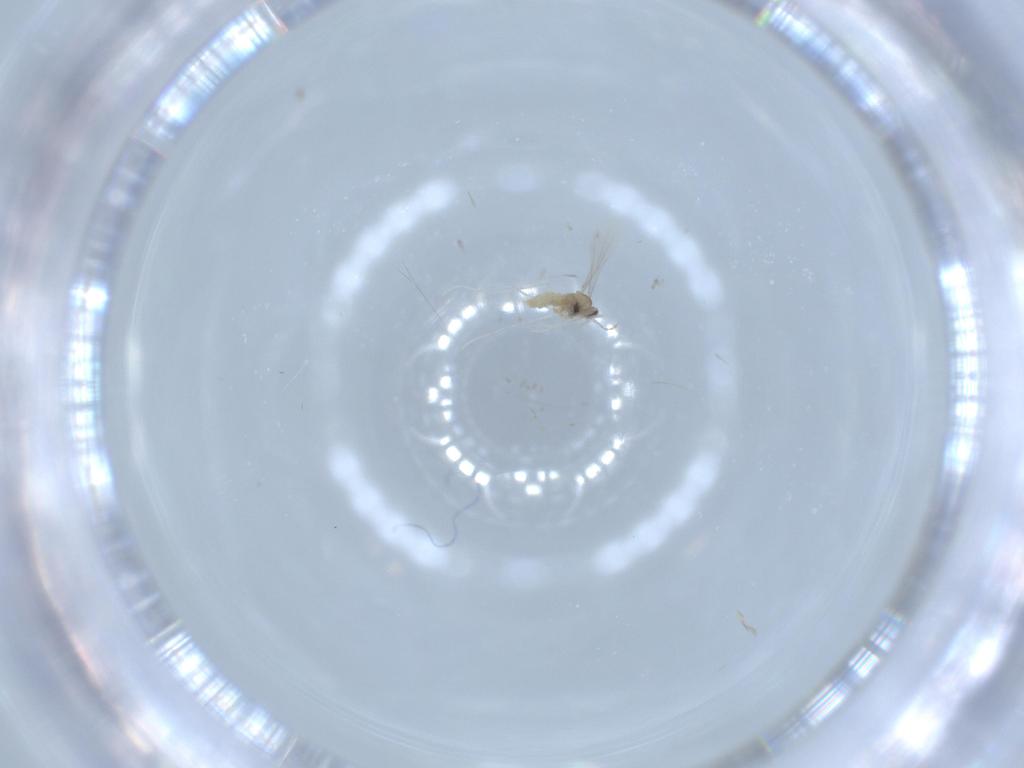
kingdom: Animalia
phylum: Arthropoda
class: Insecta
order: Diptera
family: Cecidomyiidae
